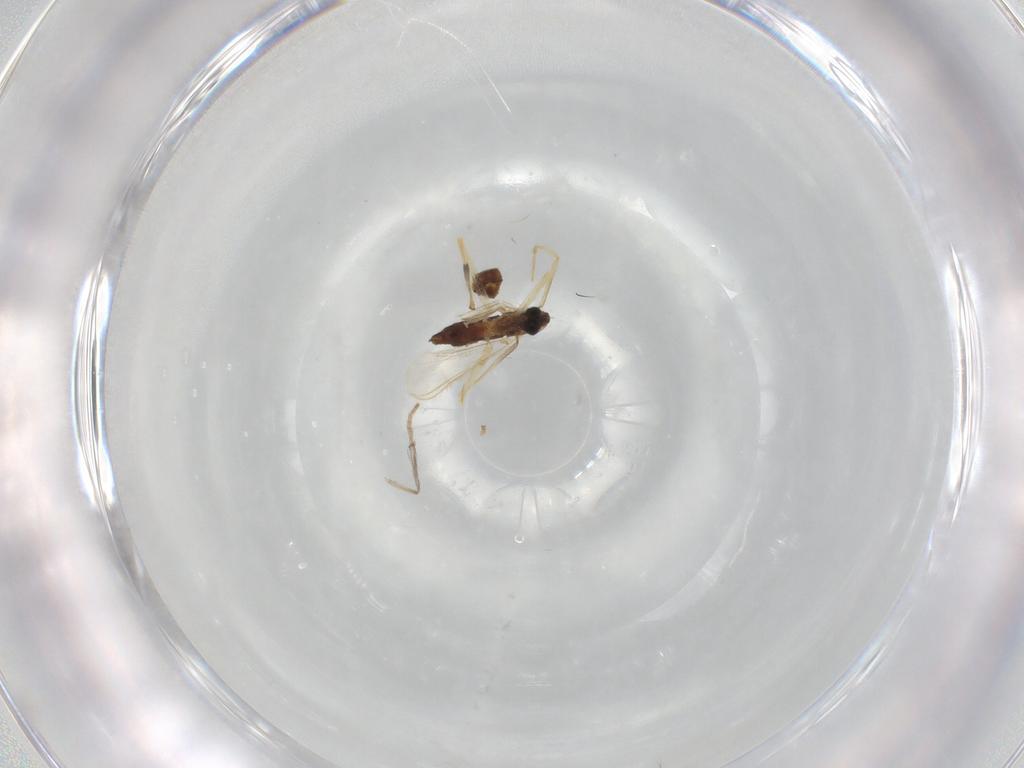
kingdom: Animalia
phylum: Arthropoda
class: Insecta
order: Diptera
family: Chironomidae
